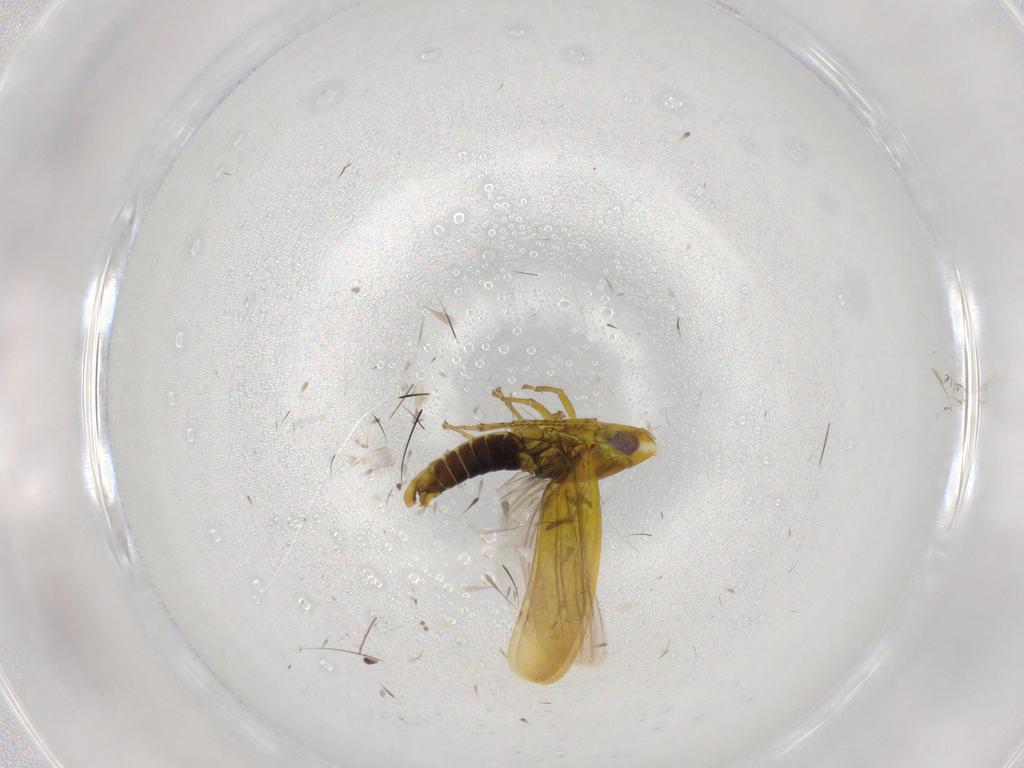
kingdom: Animalia
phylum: Arthropoda
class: Insecta
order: Hemiptera
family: Cicadellidae
